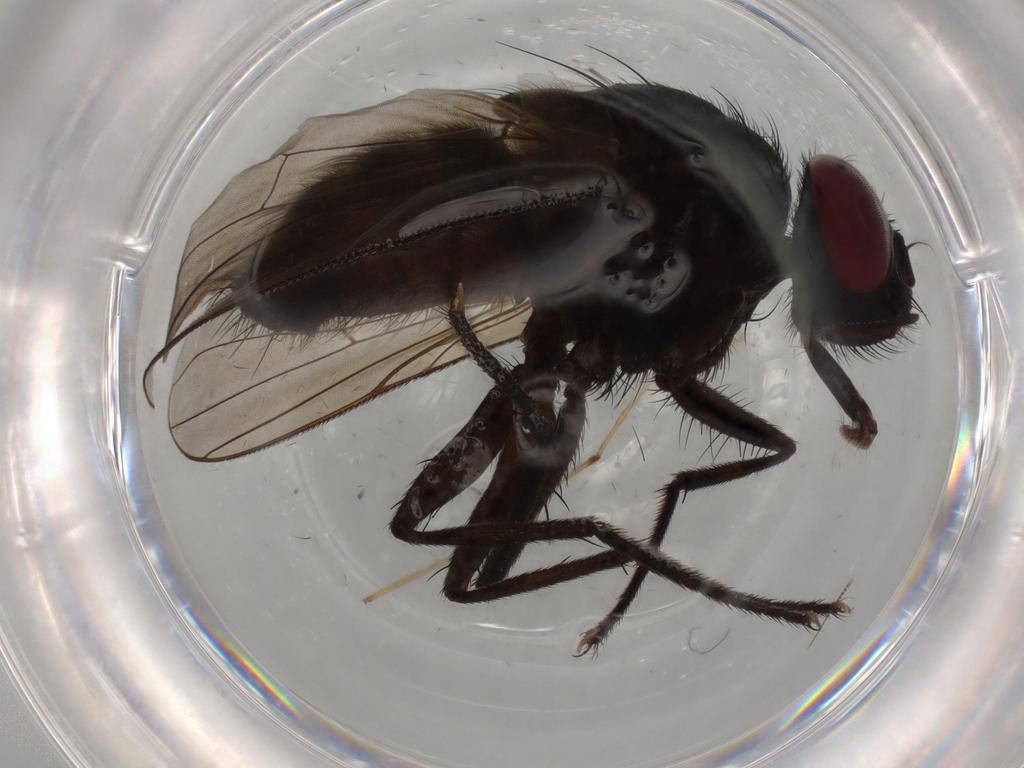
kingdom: Animalia
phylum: Arthropoda
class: Insecta
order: Diptera
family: Muscidae
